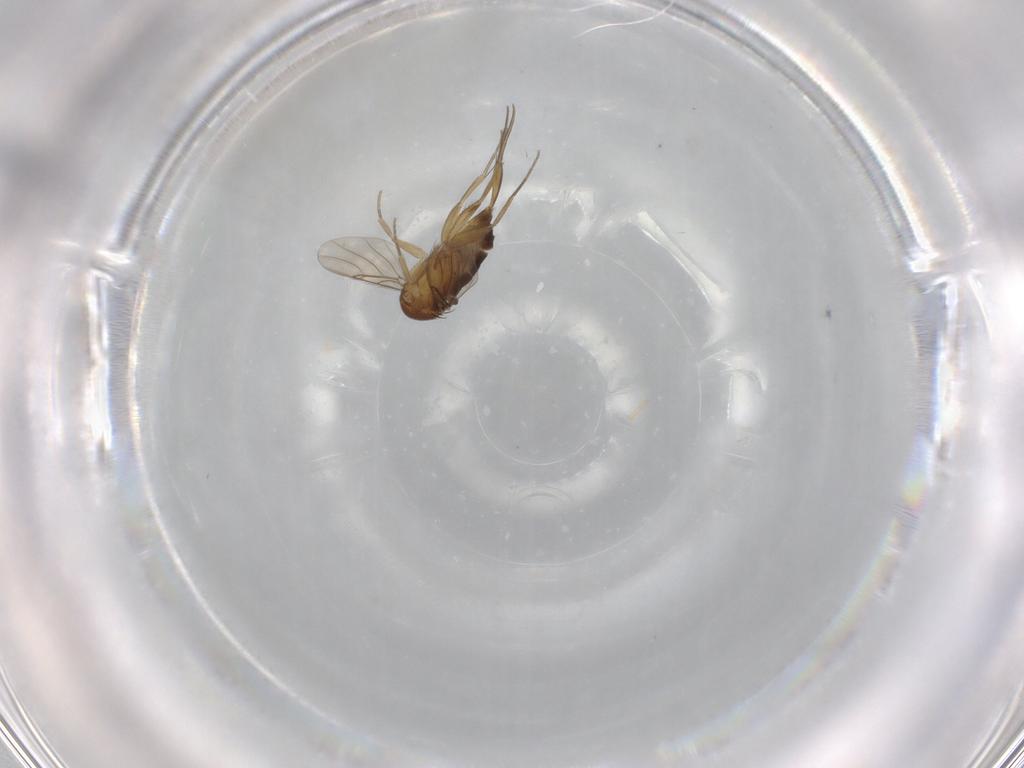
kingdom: Animalia
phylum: Arthropoda
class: Insecta
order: Diptera
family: Phoridae
